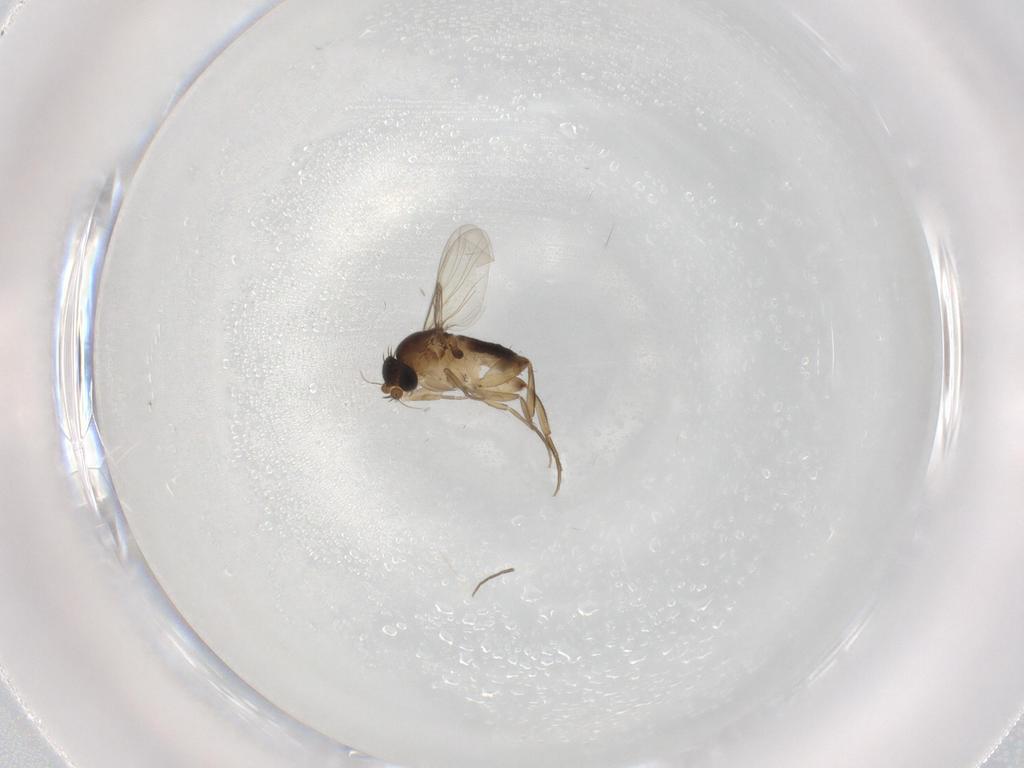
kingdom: Animalia
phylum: Arthropoda
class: Insecta
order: Diptera
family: Phoridae
